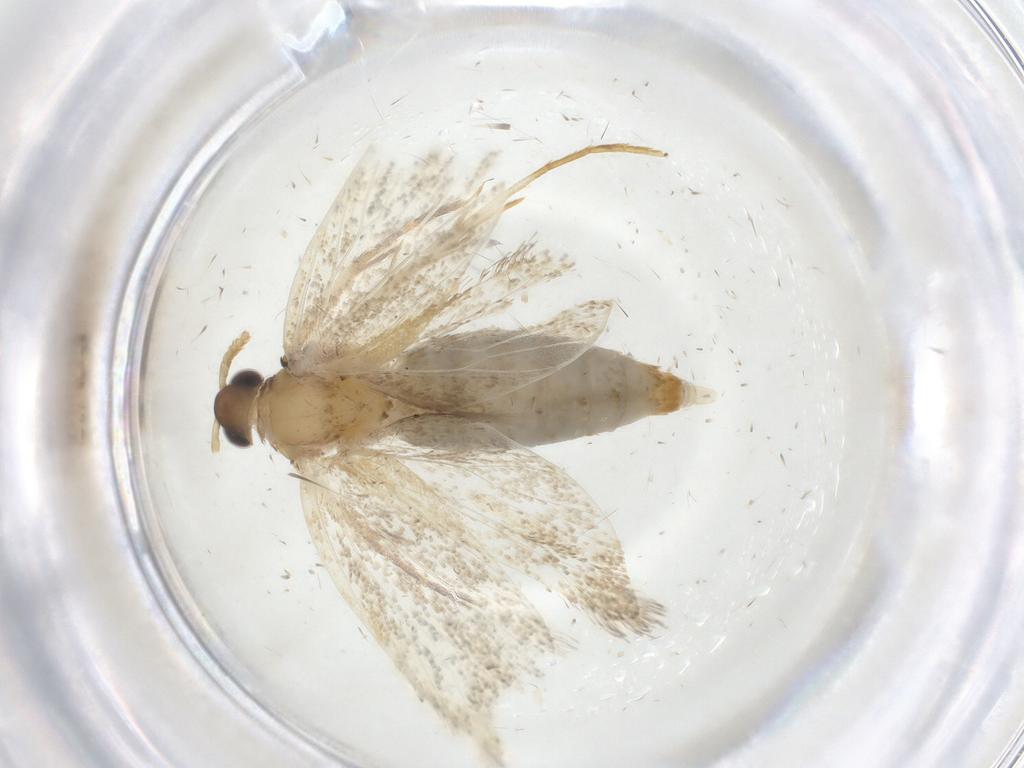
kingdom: Animalia
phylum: Arthropoda
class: Insecta
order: Lepidoptera
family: Lecithoceridae
